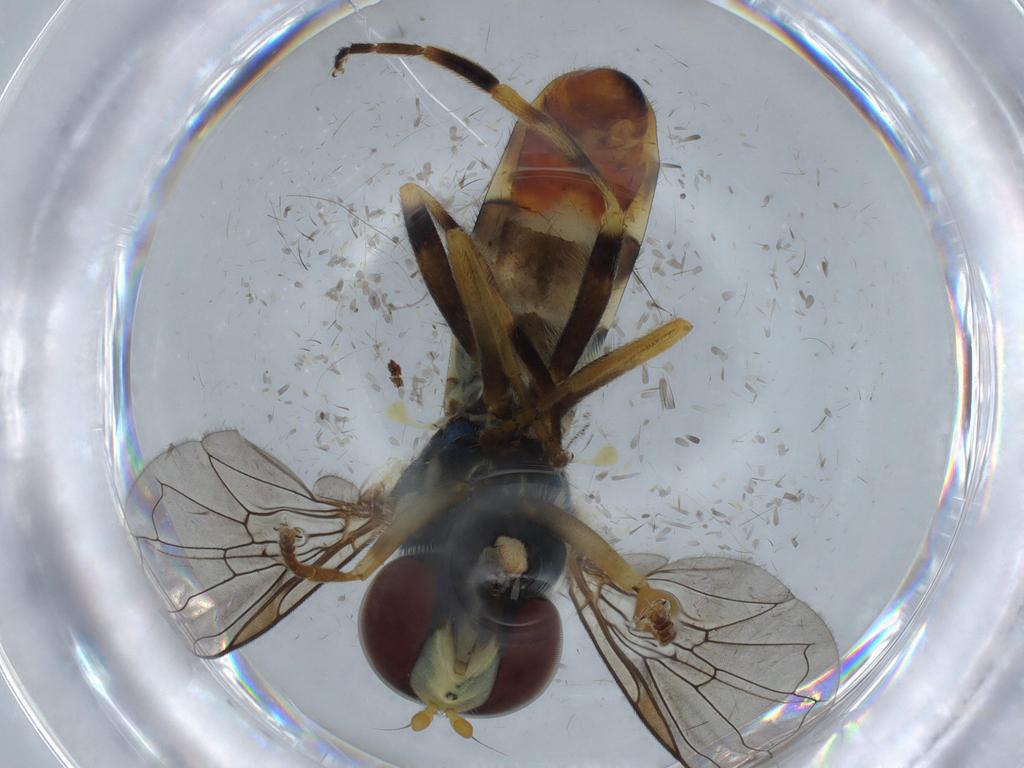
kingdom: Animalia
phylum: Arthropoda
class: Insecta
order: Diptera
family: Syrphidae
